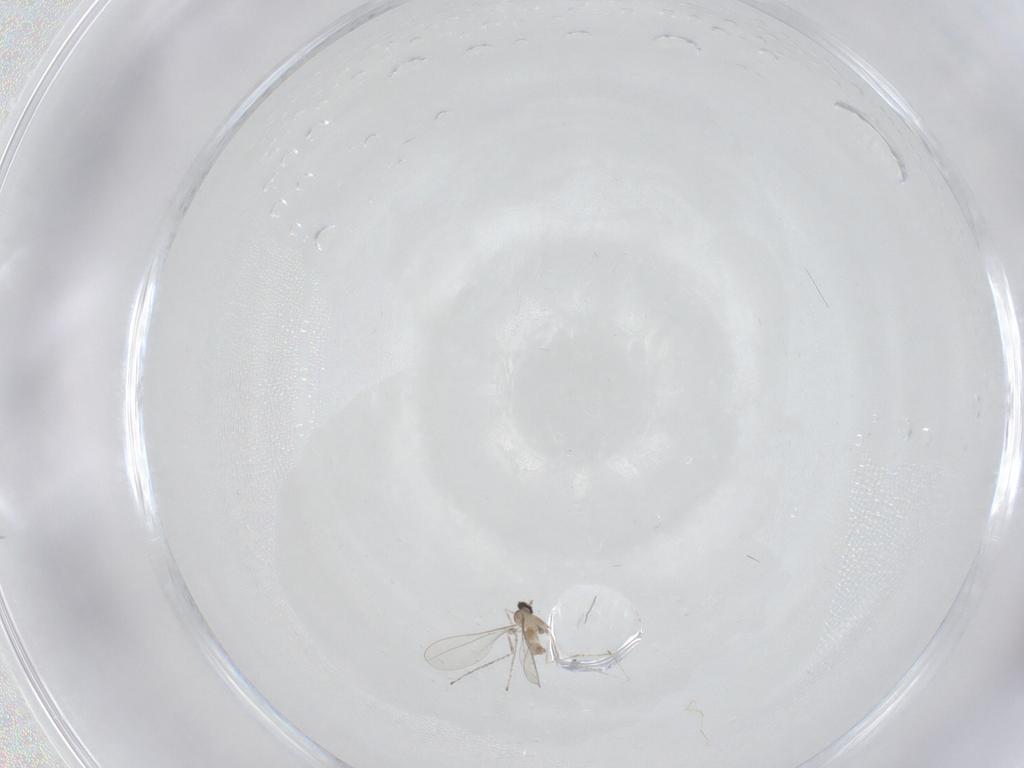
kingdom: Animalia
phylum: Arthropoda
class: Insecta
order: Diptera
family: Cecidomyiidae
